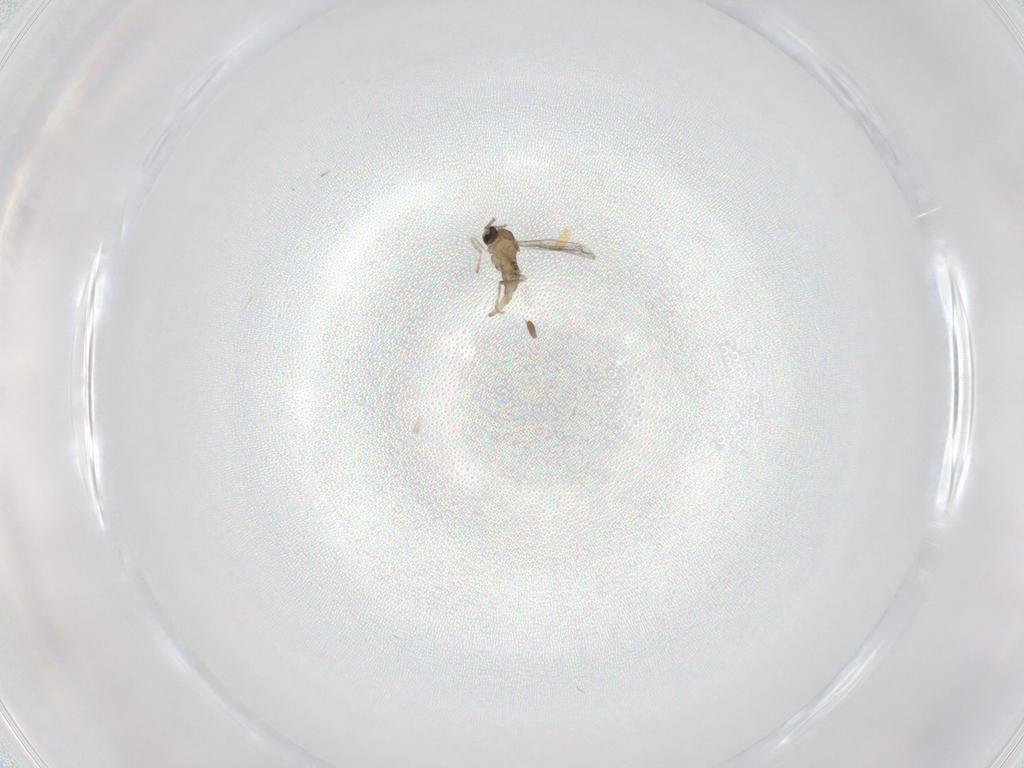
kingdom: Animalia
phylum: Arthropoda
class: Insecta
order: Diptera
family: Cecidomyiidae
